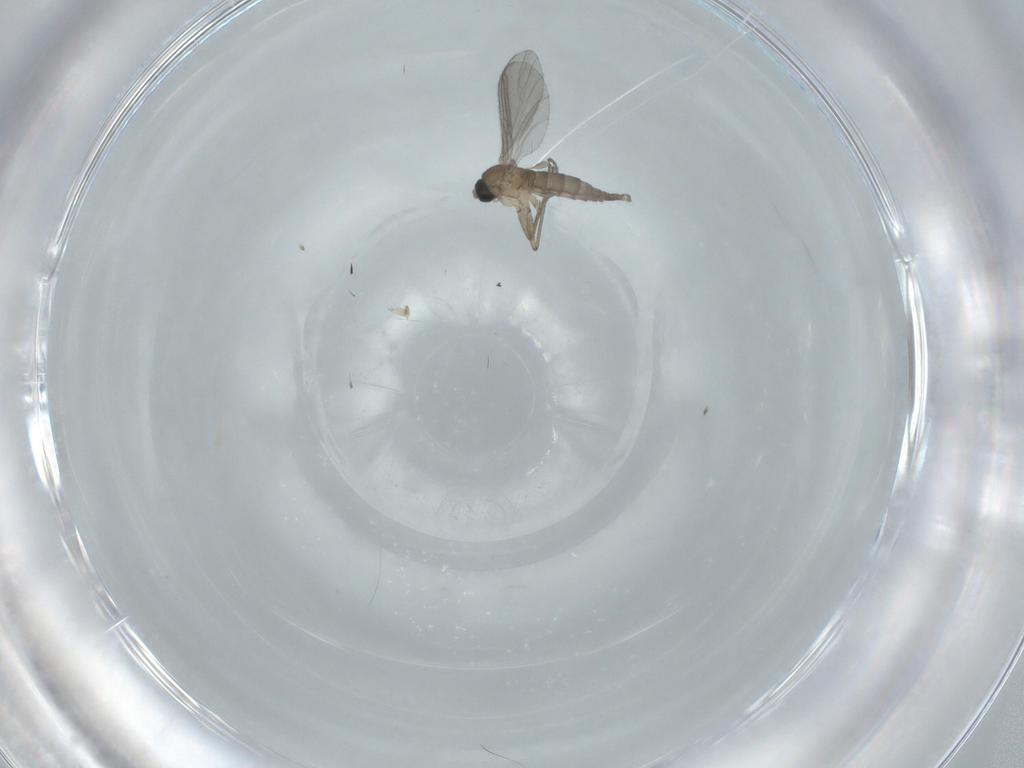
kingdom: Animalia
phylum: Arthropoda
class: Insecta
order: Diptera
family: Sciaridae
